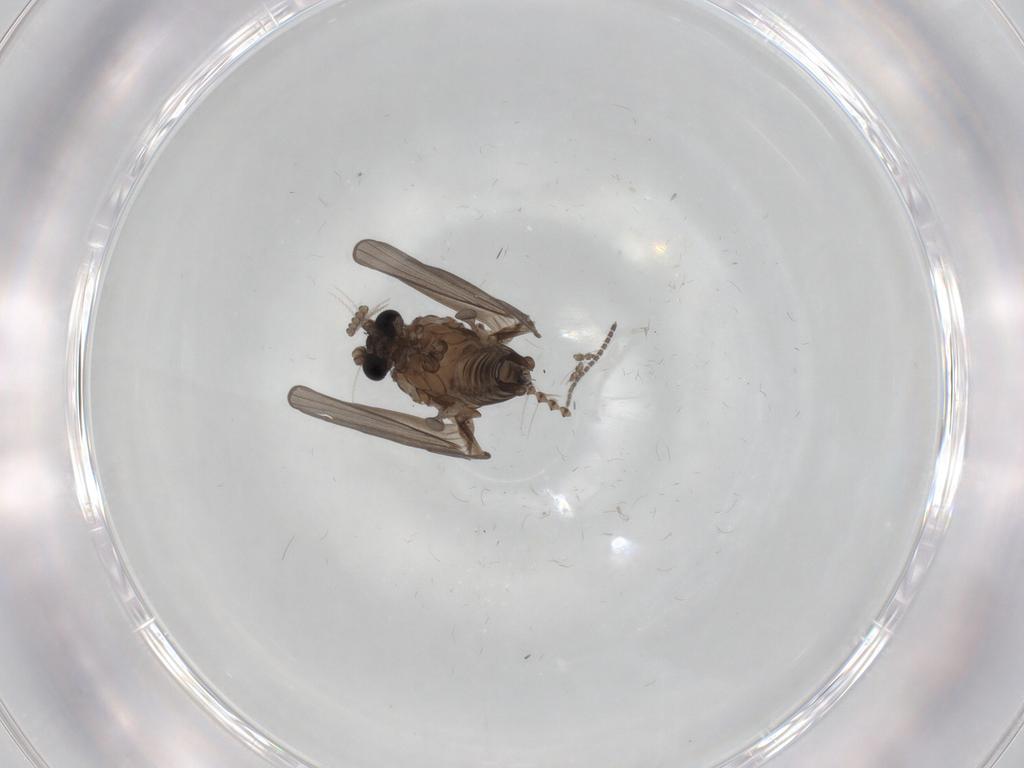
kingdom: Animalia
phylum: Arthropoda
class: Insecta
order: Diptera
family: Psychodidae
